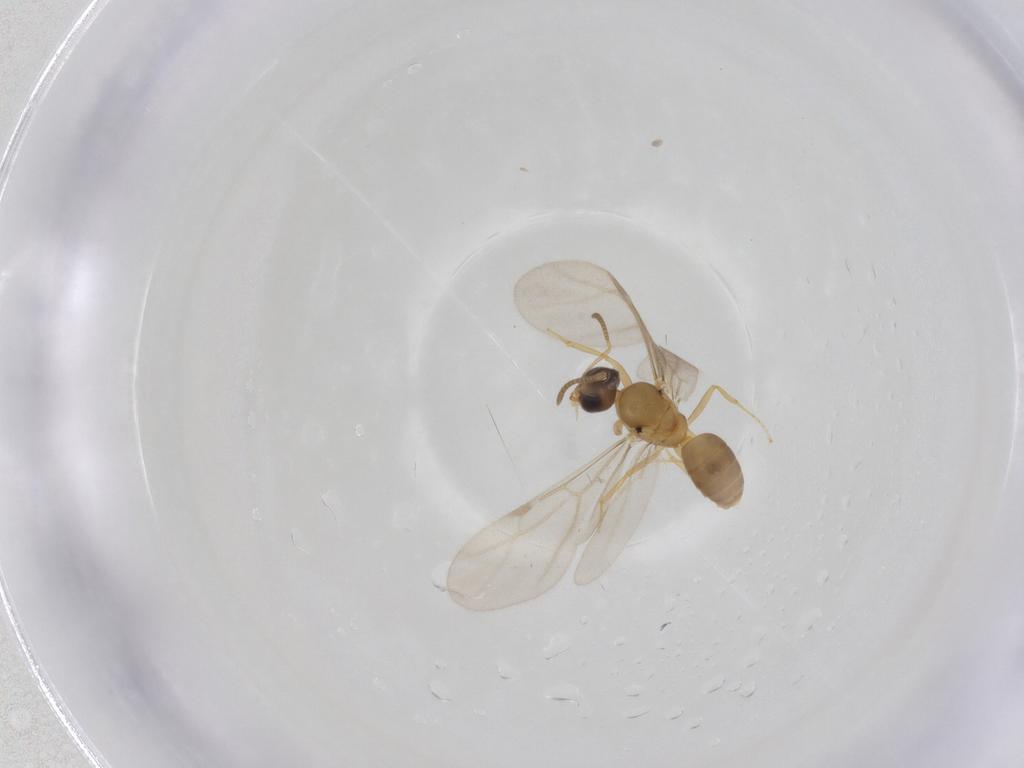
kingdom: Animalia
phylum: Arthropoda
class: Insecta
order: Hymenoptera
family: Formicidae
